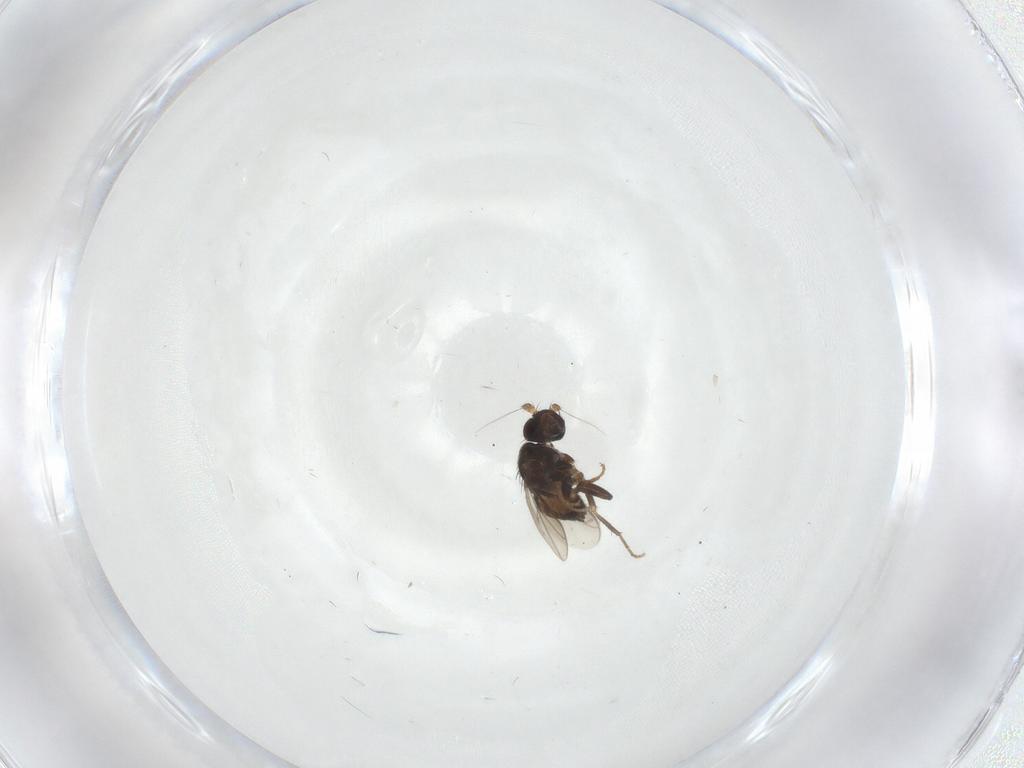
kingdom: Animalia
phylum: Arthropoda
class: Insecta
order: Diptera
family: Sphaeroceridae
